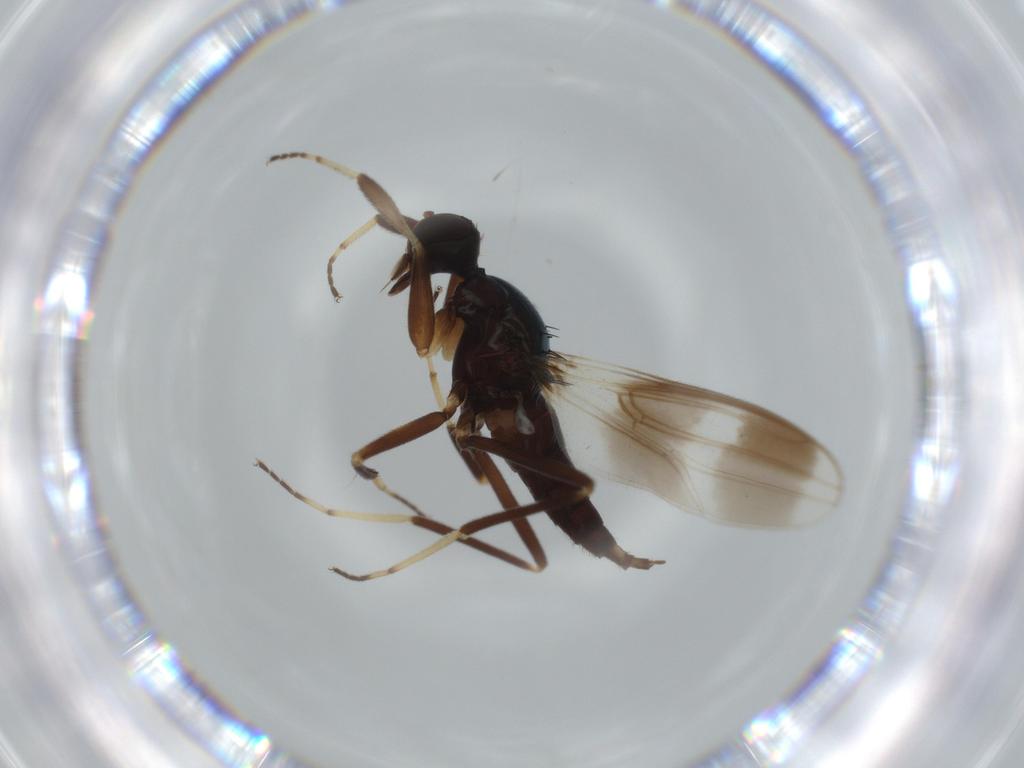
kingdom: Animalia
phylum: Arthropoda
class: Insecta
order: Diptera
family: Hybotidae
